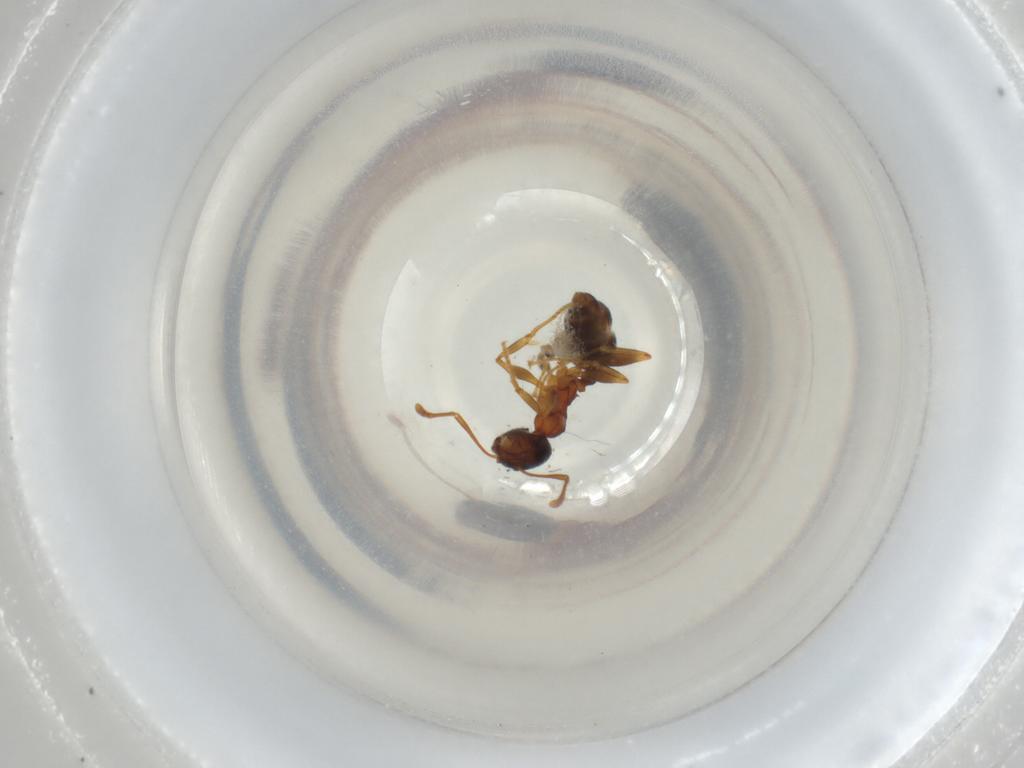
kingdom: Animalia
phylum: Arthropoda
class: Insecta
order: Hymenoptera
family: Formicidae
